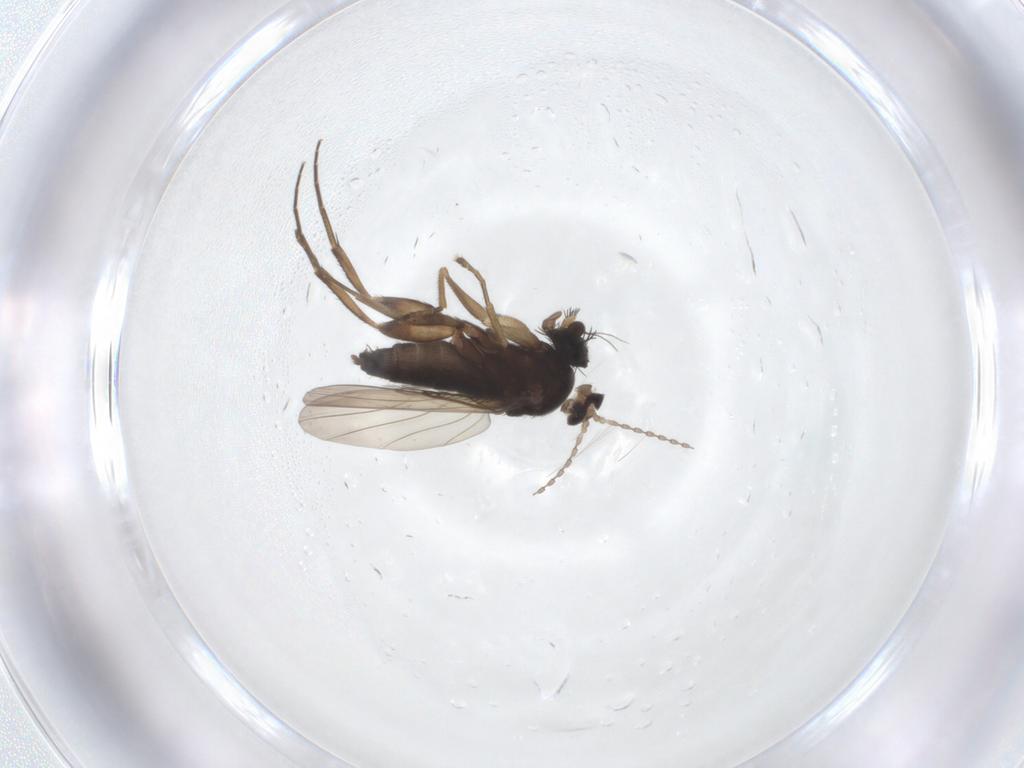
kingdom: Animalia
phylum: Arthropoda
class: Insecta
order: Diptera
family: Phoridae
